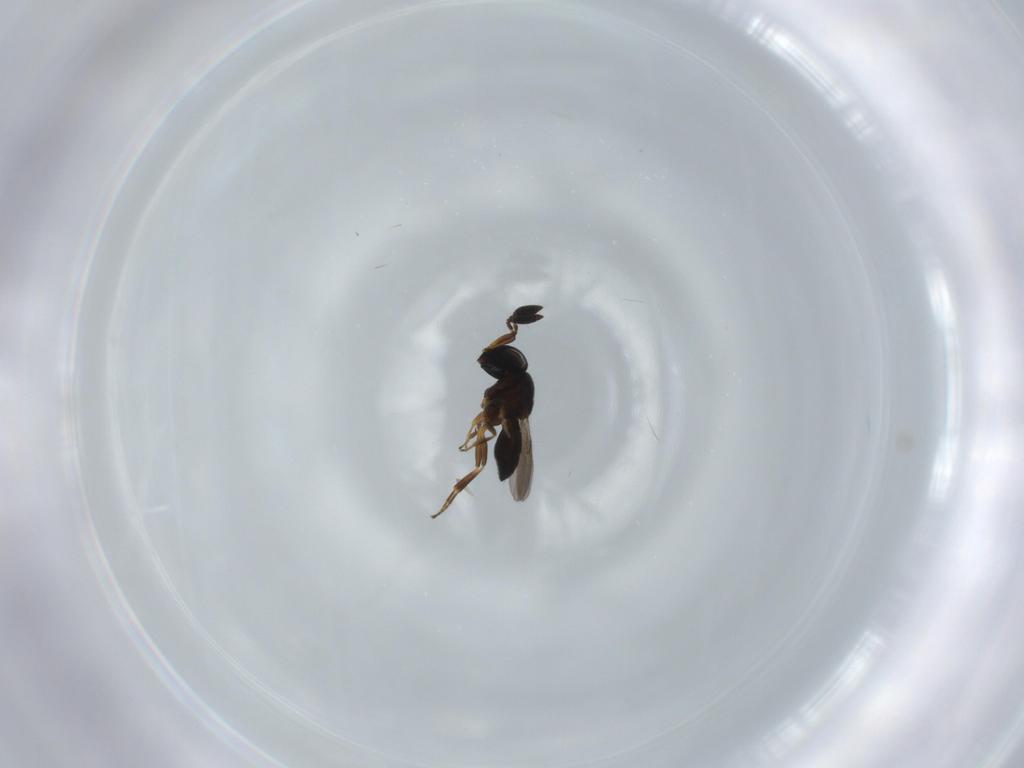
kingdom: Animalia
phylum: Arthropoda
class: Insecta
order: Hymenoptera
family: Scelionidae
